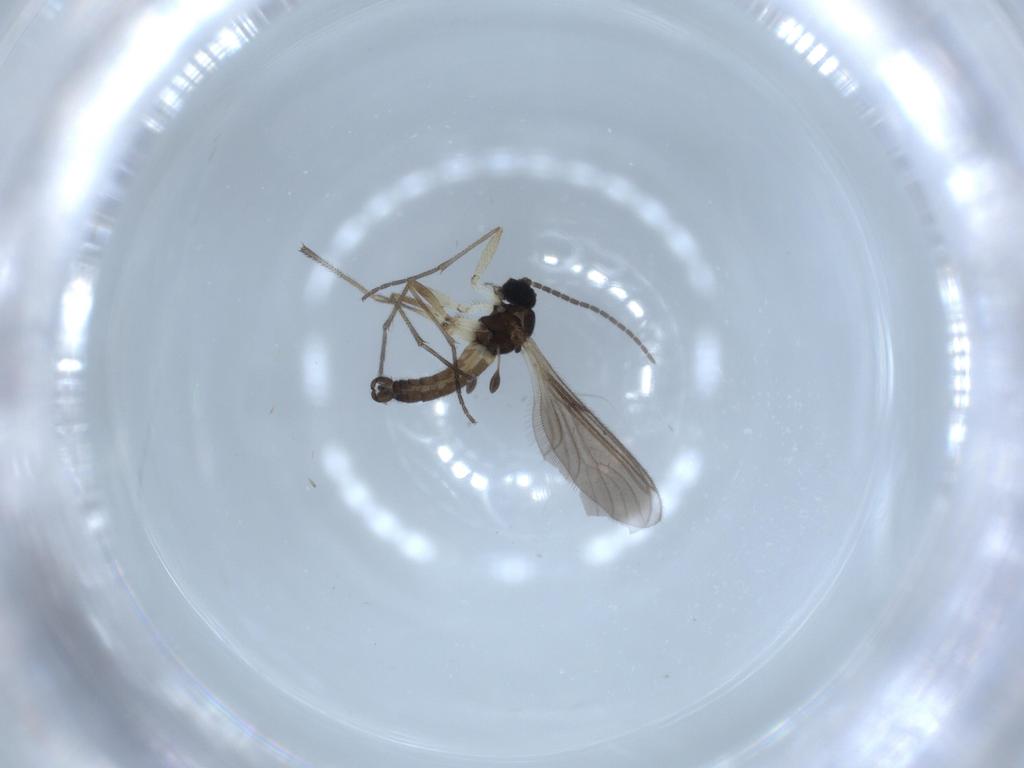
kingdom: Animalia
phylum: Arthropoda
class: Insecta
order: Diptera
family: Sciaridae
